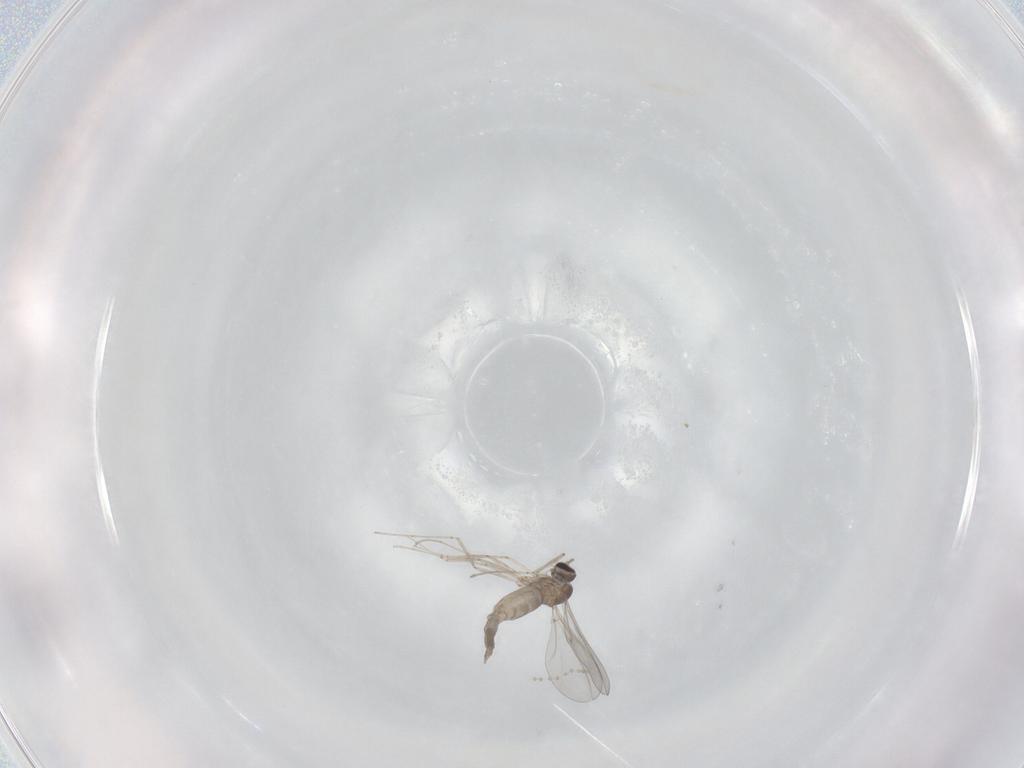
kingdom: Animalia
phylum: Arthropoda
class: Insecta
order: Diptera
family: Cecidomyiidae
